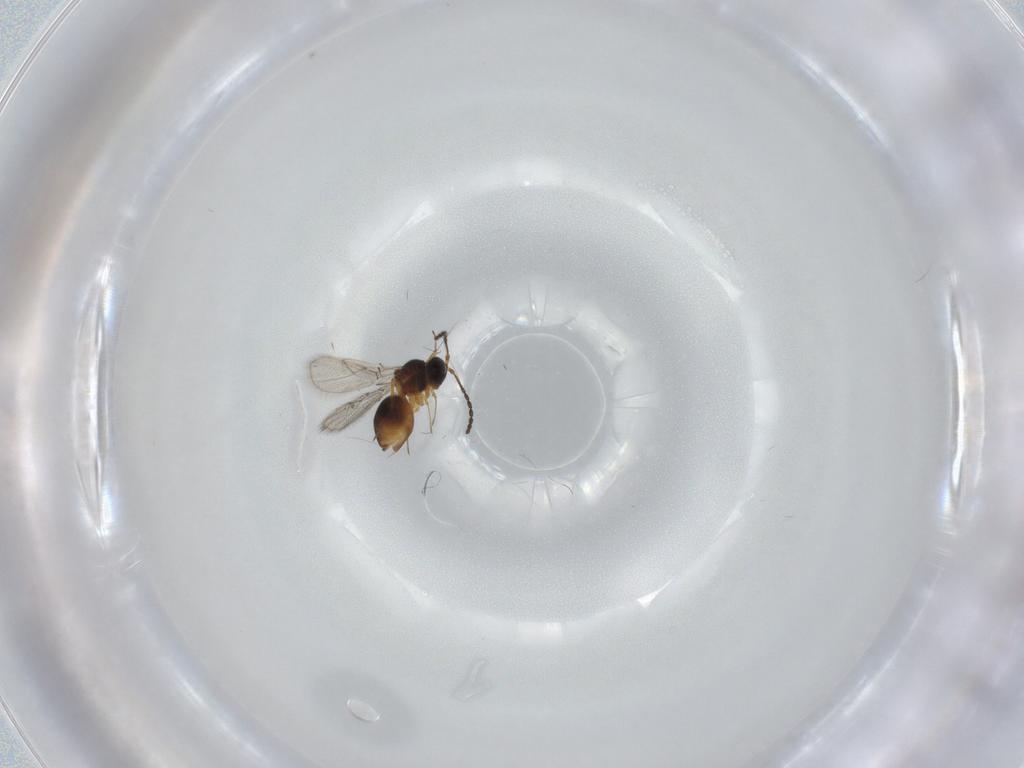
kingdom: Animalia
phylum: Arthropoda
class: Insecta
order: Hymenoptera
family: Figitidae
